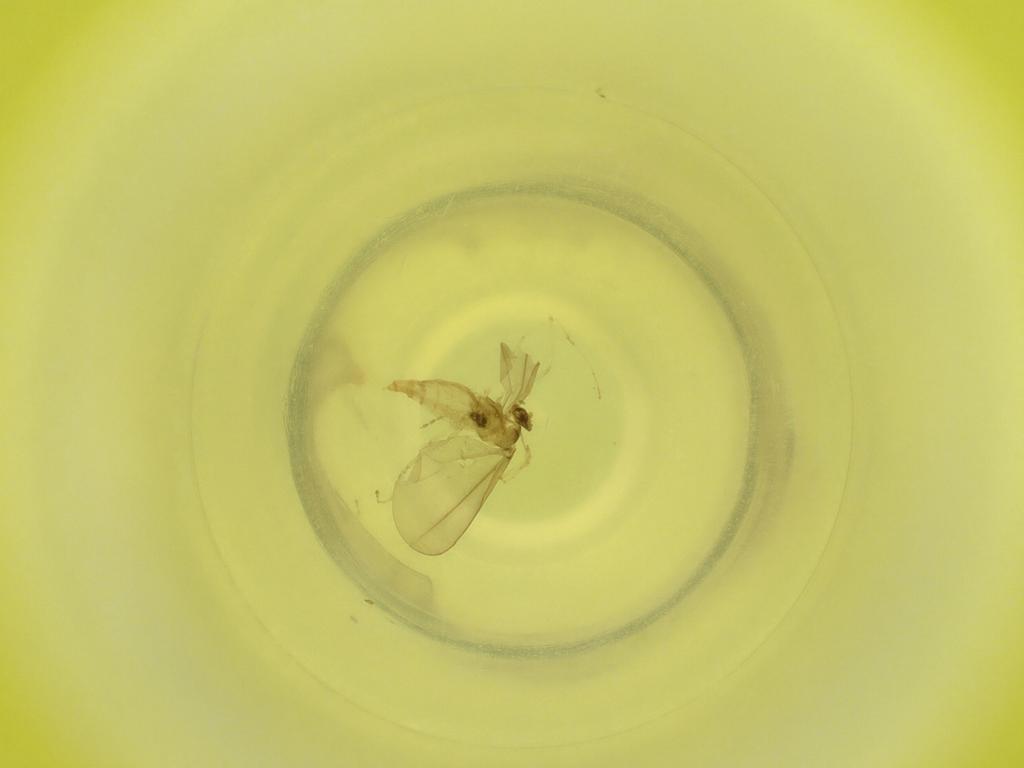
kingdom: Animalia
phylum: Arthropoda
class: Insecta
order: Diptera
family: Cecidomyiidae
